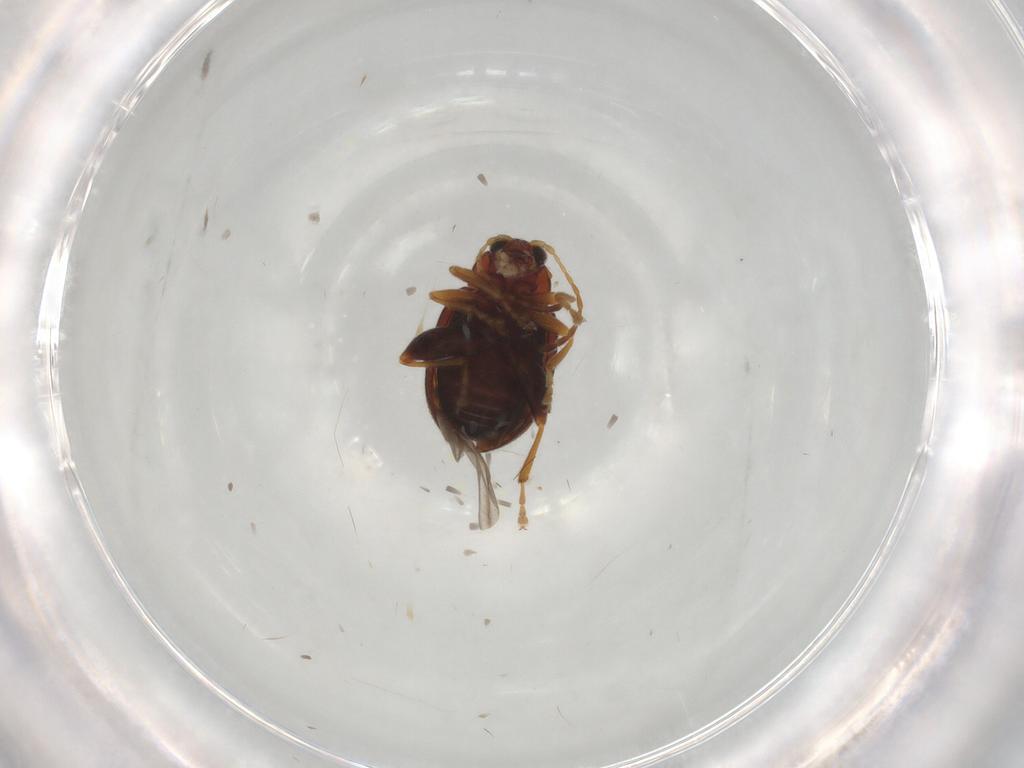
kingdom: Animalia
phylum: Arthropoda
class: Insecta
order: Coleoptera
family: Chrysomelidae
